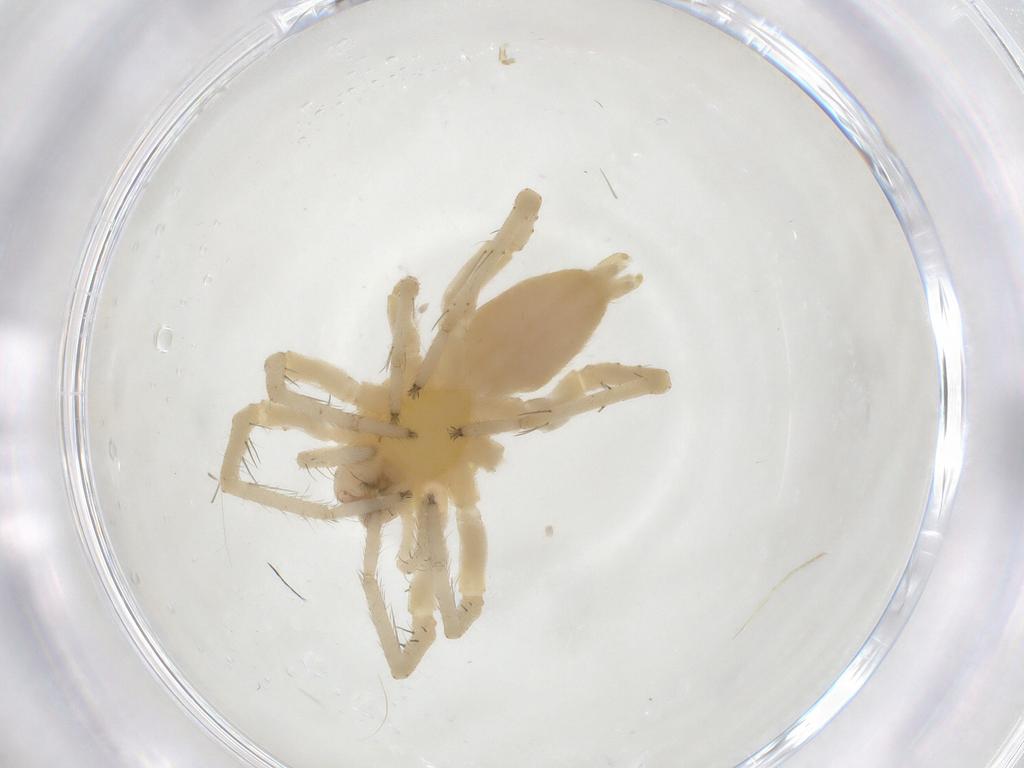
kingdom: Animalia
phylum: Arthropoda
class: Arachnida
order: Araneae
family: Anyphaenidae
